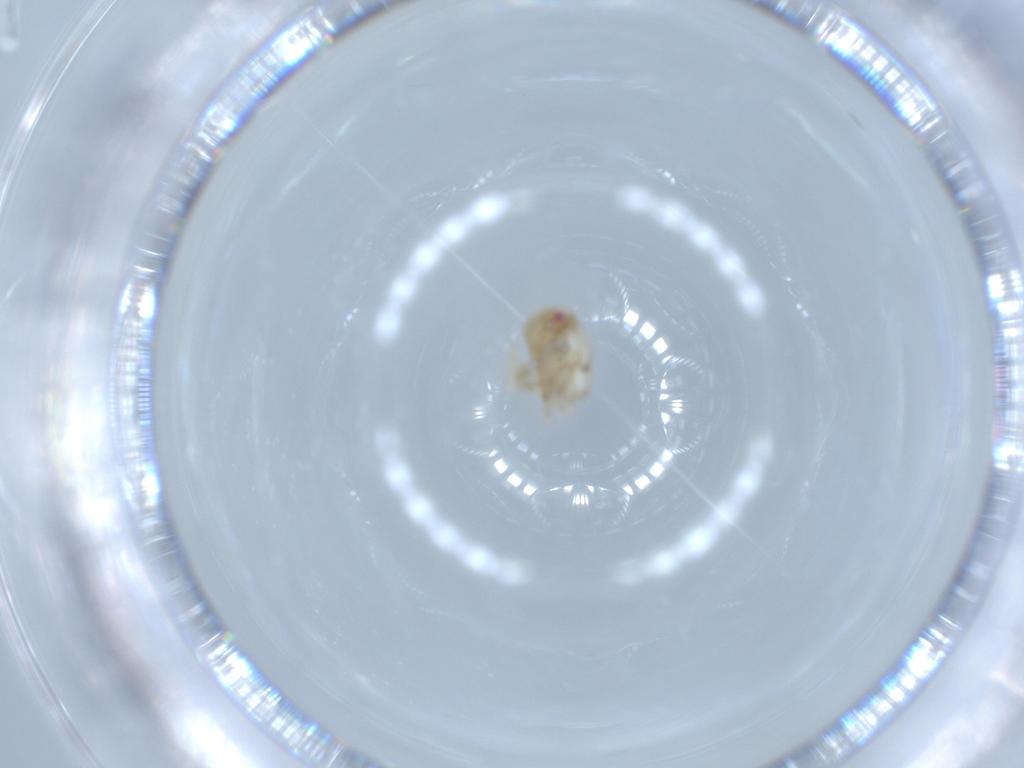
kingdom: Animalia
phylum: Arthropoda
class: Insecta
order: Hemiptera
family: Acanaloniidae
